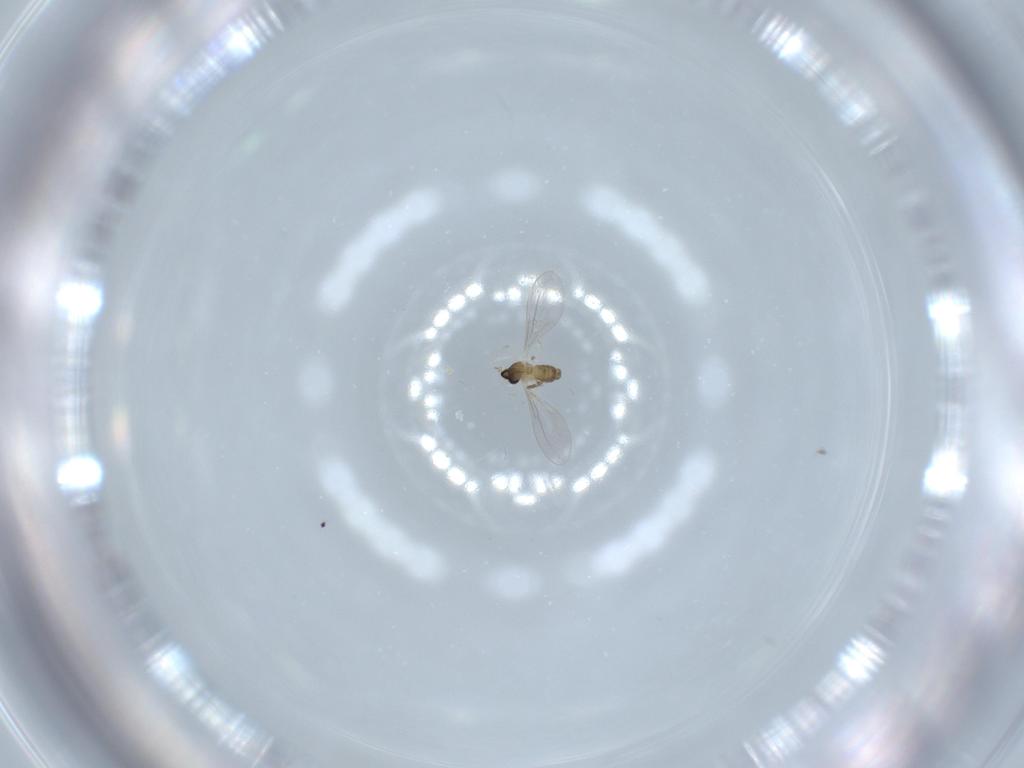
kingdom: Animalia
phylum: Arthropoda
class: Insecta
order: Diptera
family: Cecidomyiidae
